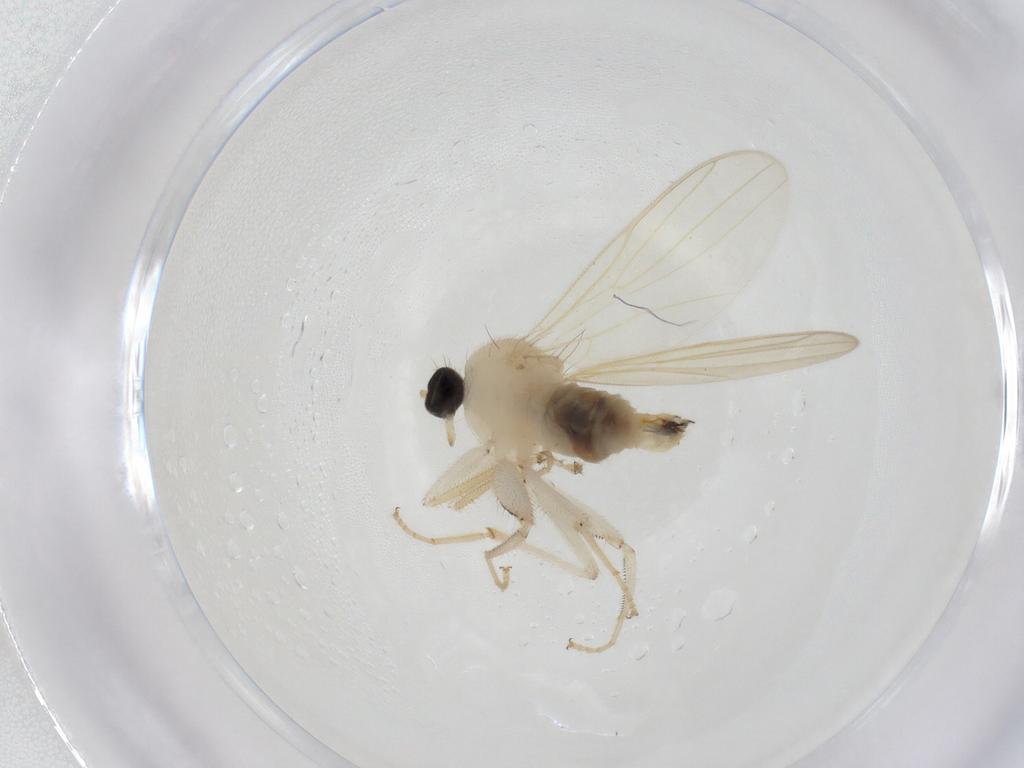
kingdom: Animalia
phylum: Arthropoda
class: Insecta
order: Diptera
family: Hybotidae
